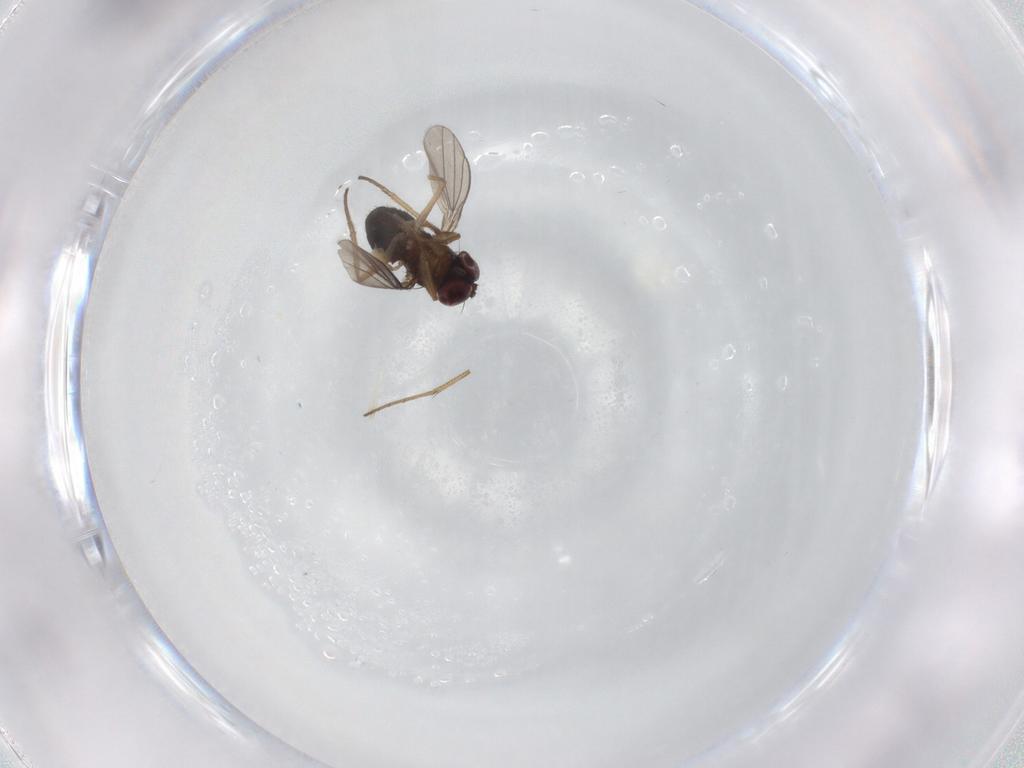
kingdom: Animalia
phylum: Arthropoda
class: Insecta
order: Diptera
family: Dolichopodidae
